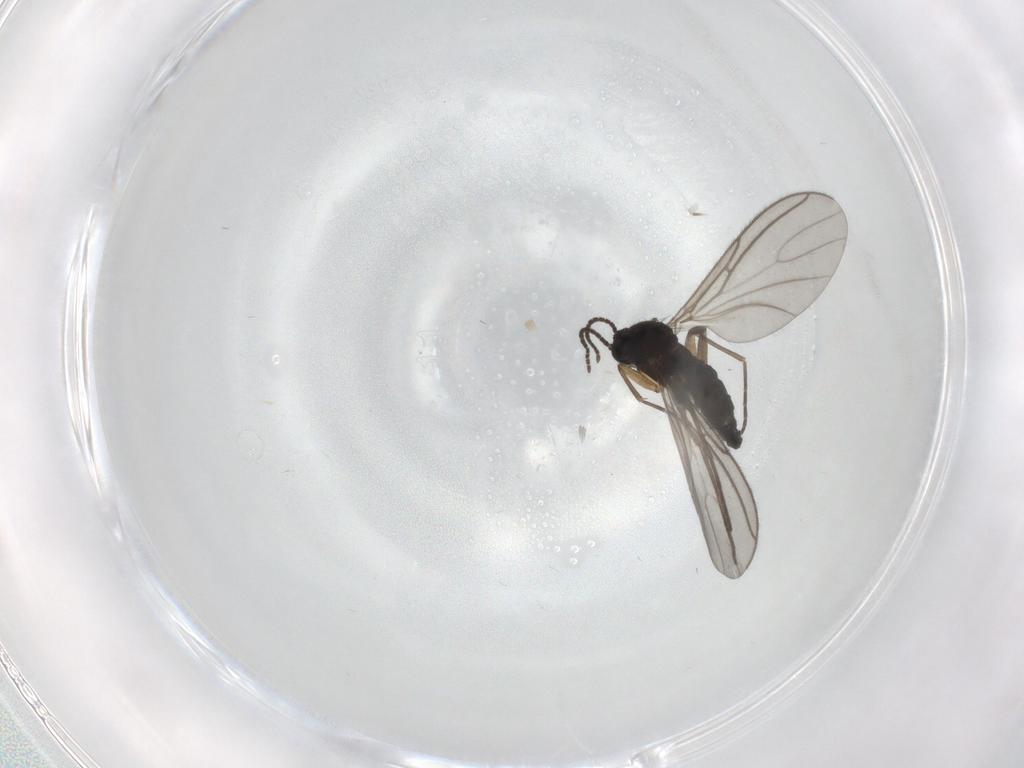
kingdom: Animalia
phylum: Arthropoda
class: Insecta
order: Diptera
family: Sciaridae
